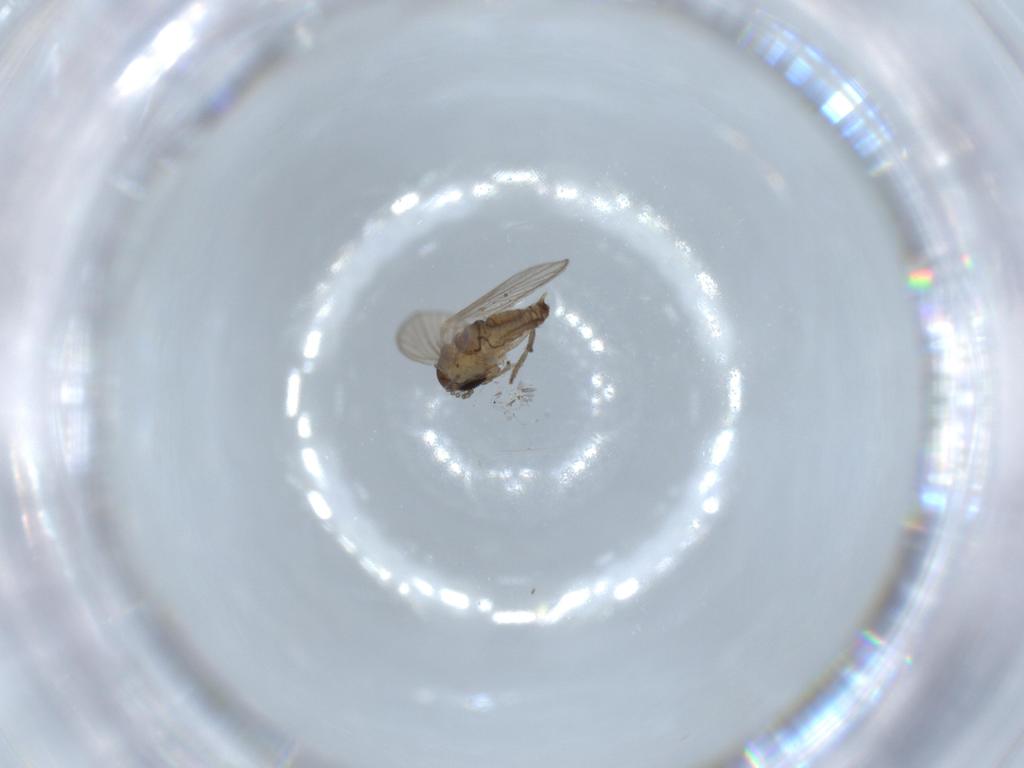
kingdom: Animalia
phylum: Arthropoda
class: Insecta
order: Diptera
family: Psychodidae
